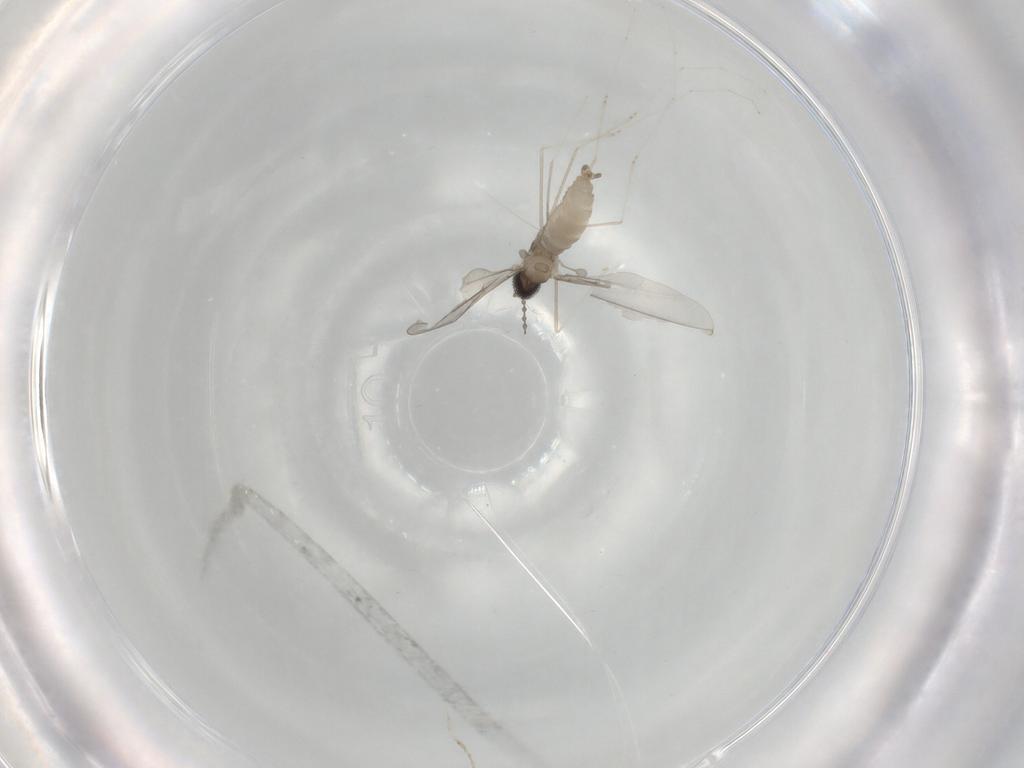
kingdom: Animalia
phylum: Arthropoda
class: Insecta
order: Diptera
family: Cecidomyiidae
